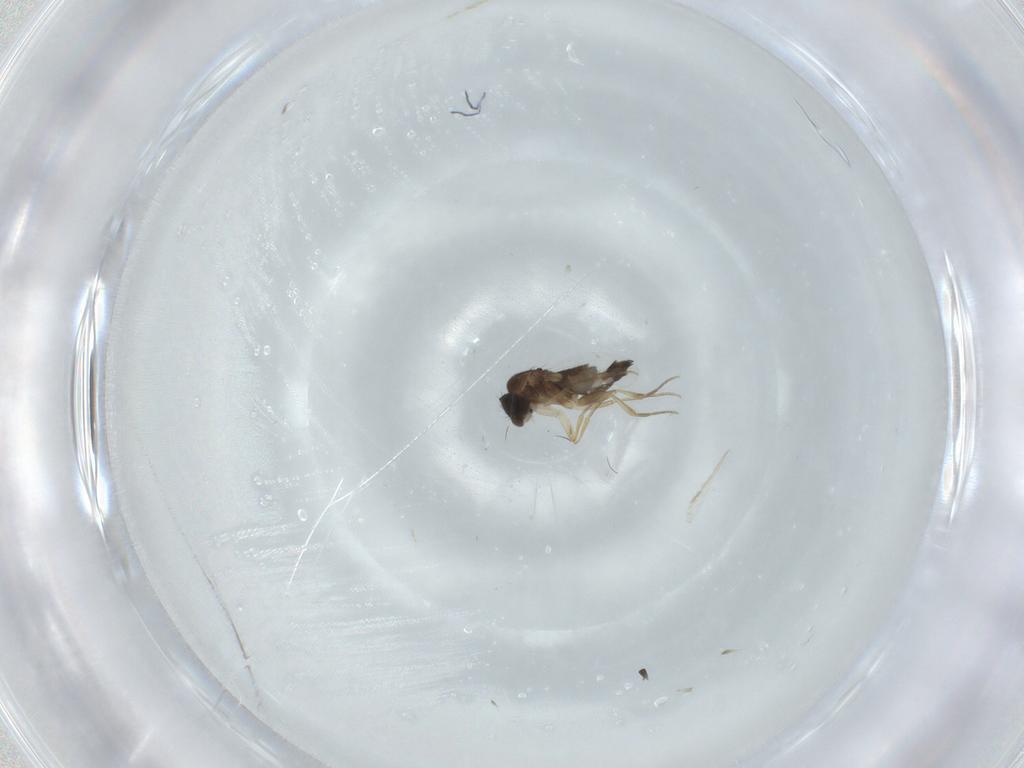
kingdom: Animalia
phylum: Arthropoda
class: Insecta
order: Diptera
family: Phoridae
